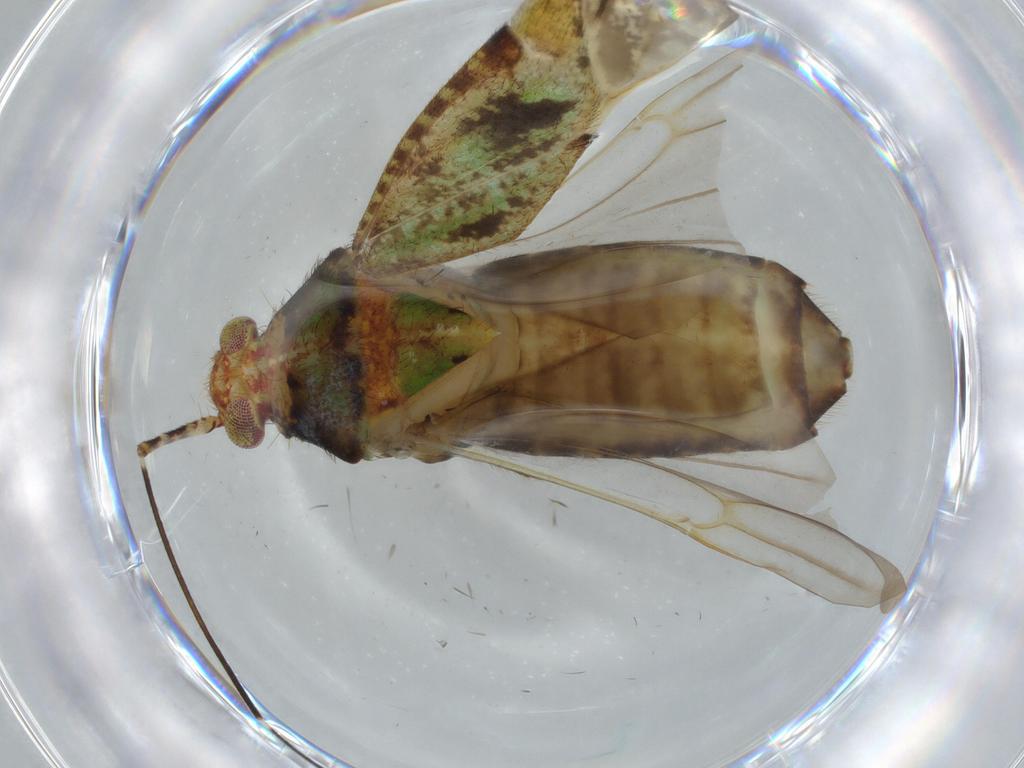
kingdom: Animalia
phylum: Arthropoda
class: Insecta
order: Hemiptera
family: Miridae
